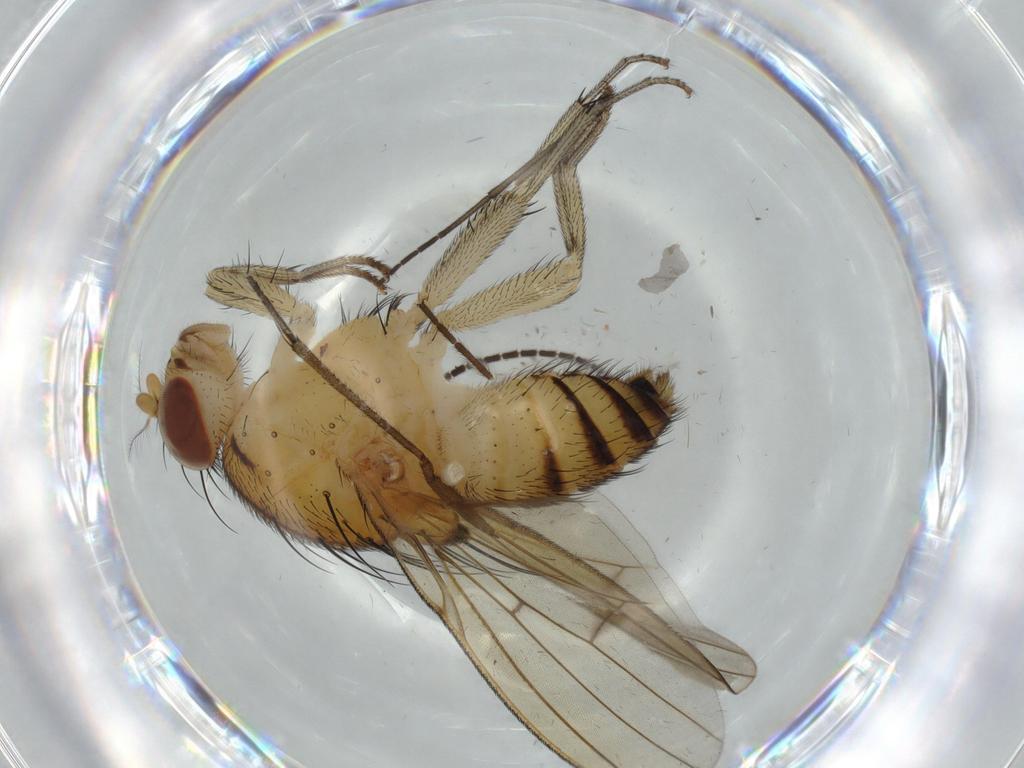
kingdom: Animalia
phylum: Arthropoda
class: Insecta
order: Diptera
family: Lauxaniidae
